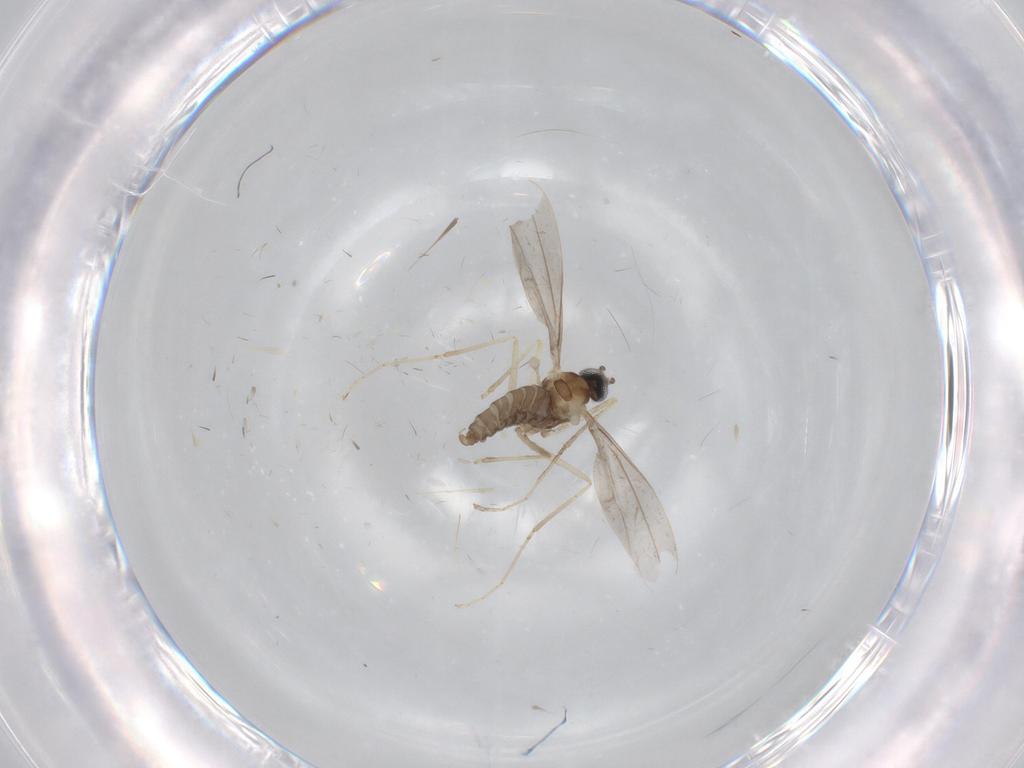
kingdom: Animalia
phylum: Arthropoda
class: Insecta
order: Diptera
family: Cecidomyiidae
